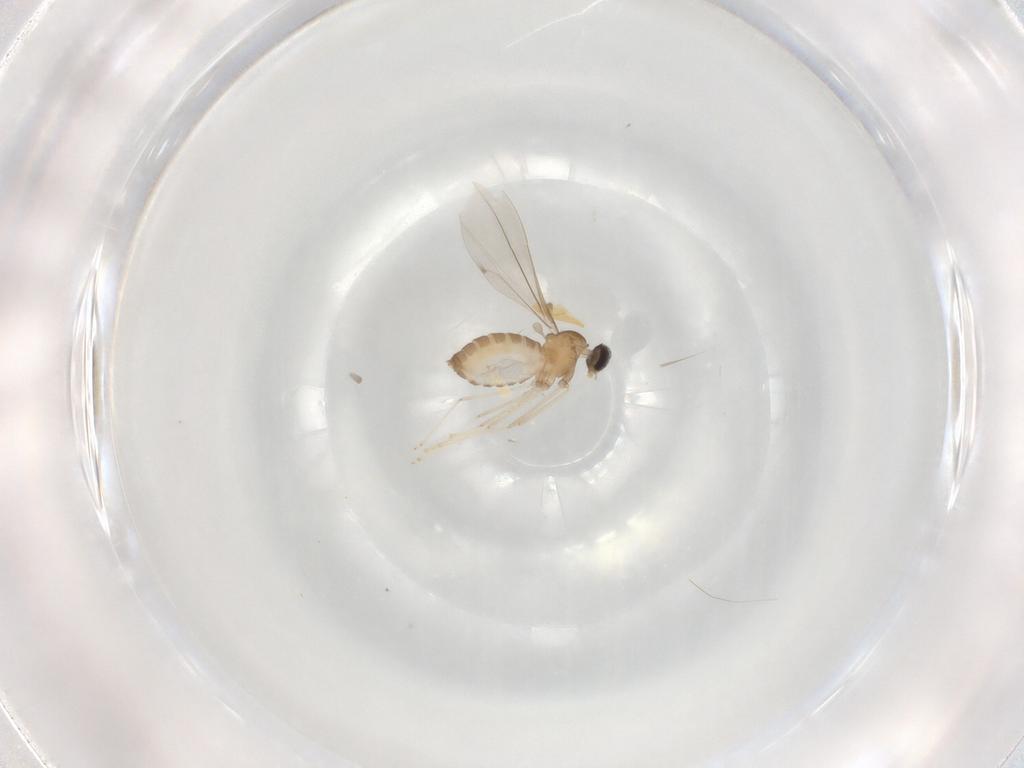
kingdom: Animalia
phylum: Arthropoda
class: Insecta
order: Diptera
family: Cecidomyiidae
